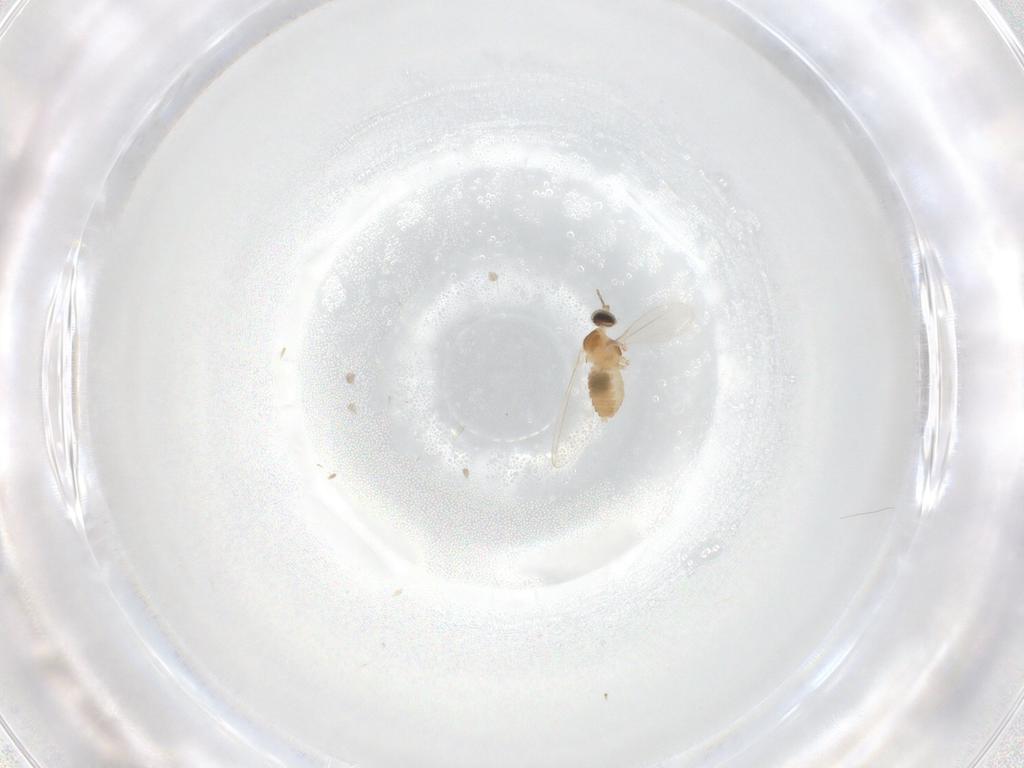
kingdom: Animalia
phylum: Arthropoda
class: Insecta
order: Diptera
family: Cecidomyiidae
